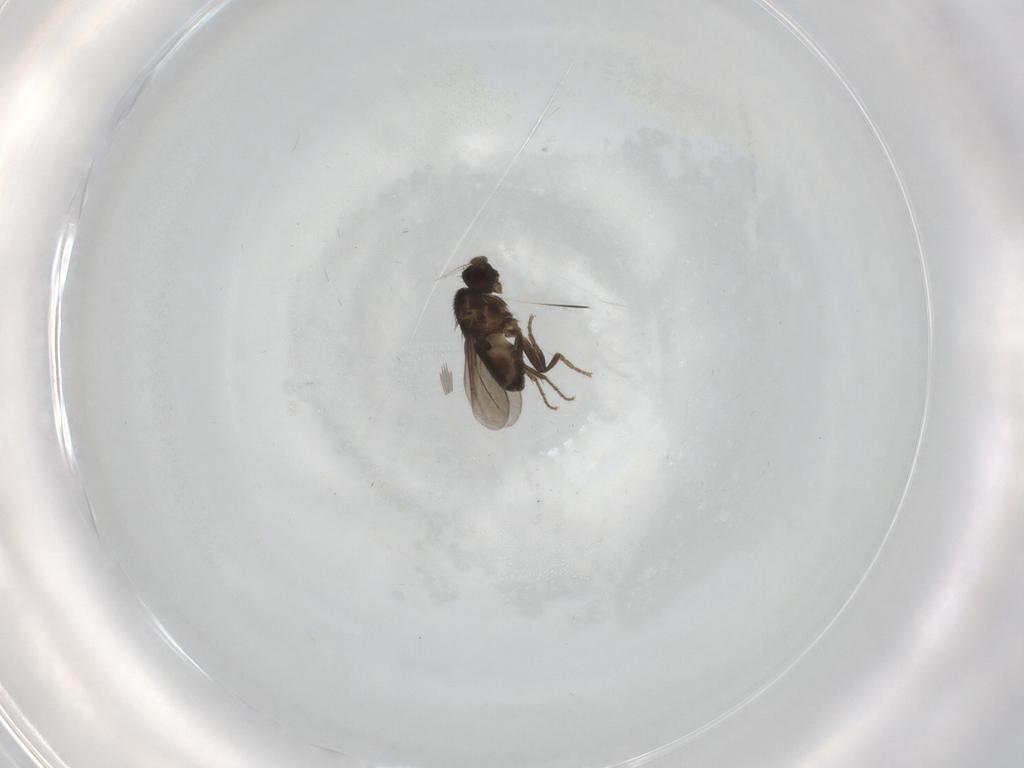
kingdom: Animalia
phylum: Arthropoda
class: Insecta
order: Diptera
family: Sphaeroceridae
